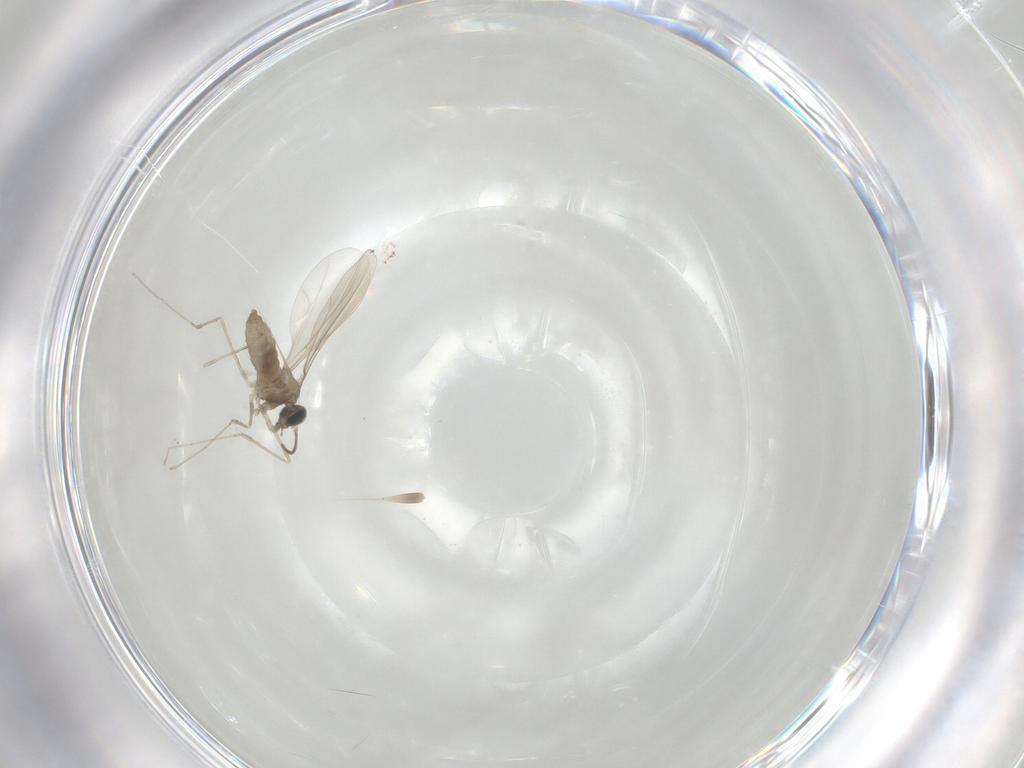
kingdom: Animalia
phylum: Arthropoda
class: Insecta
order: Diptera
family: Cecidomyiidae
